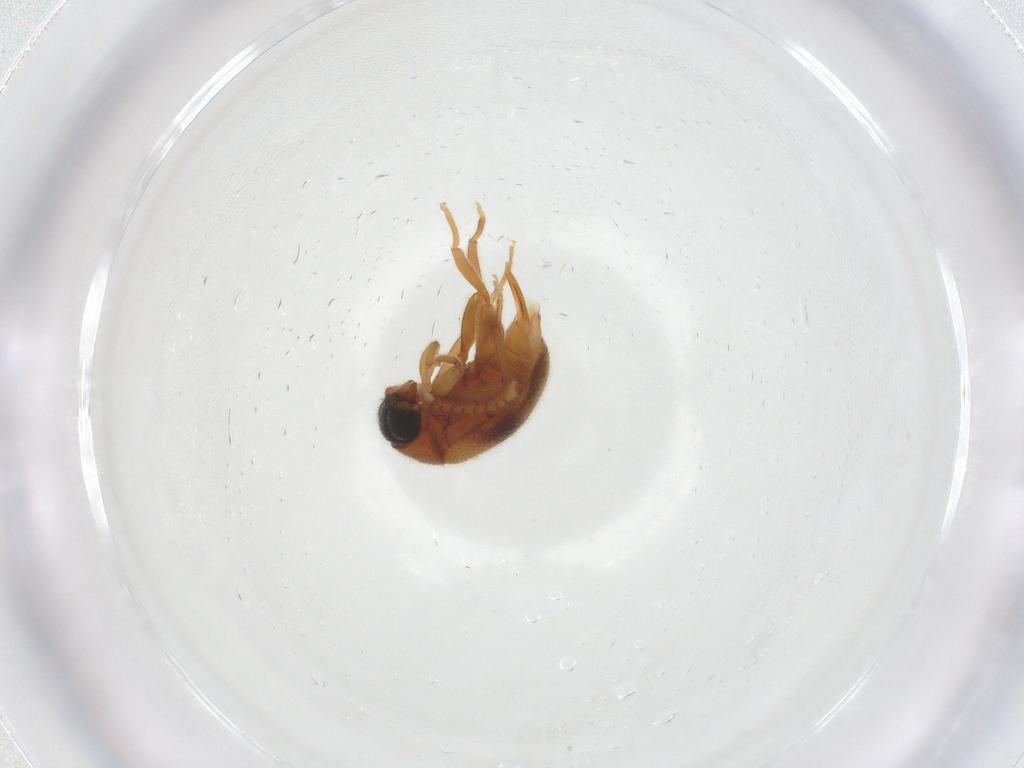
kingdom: Animalia
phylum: Arthropoda
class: Insecta
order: Coleoptera
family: Aderidae
